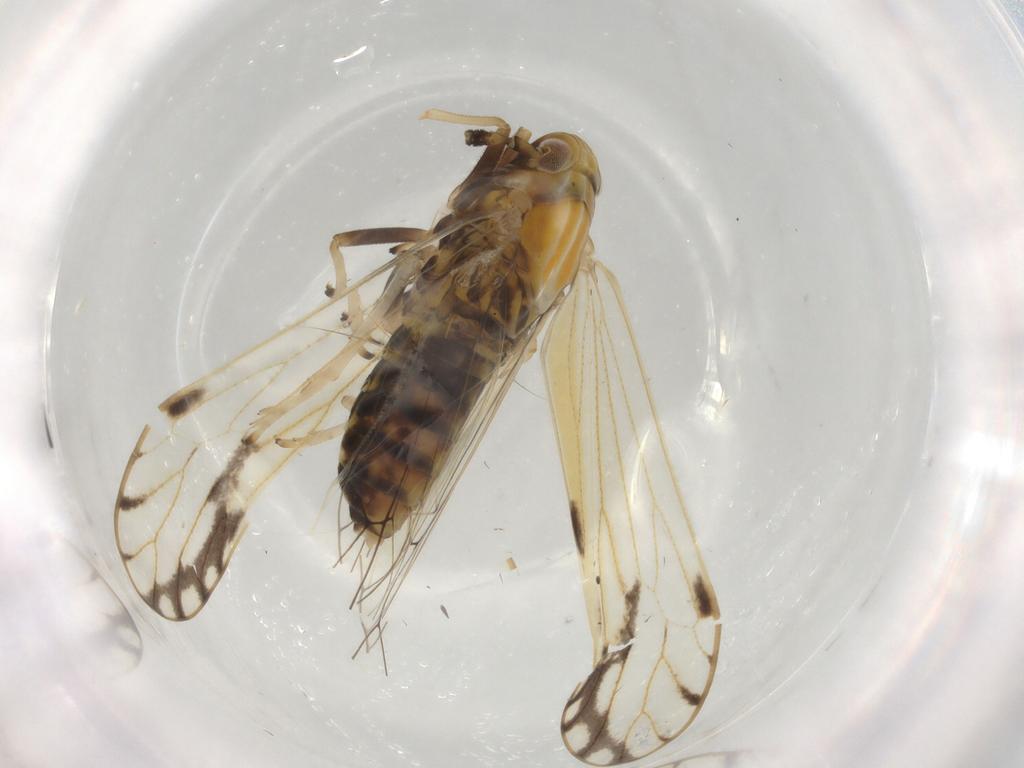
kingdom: Animalia
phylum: Arthropoda
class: Insecta
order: Hemiptera
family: Delphacidae
